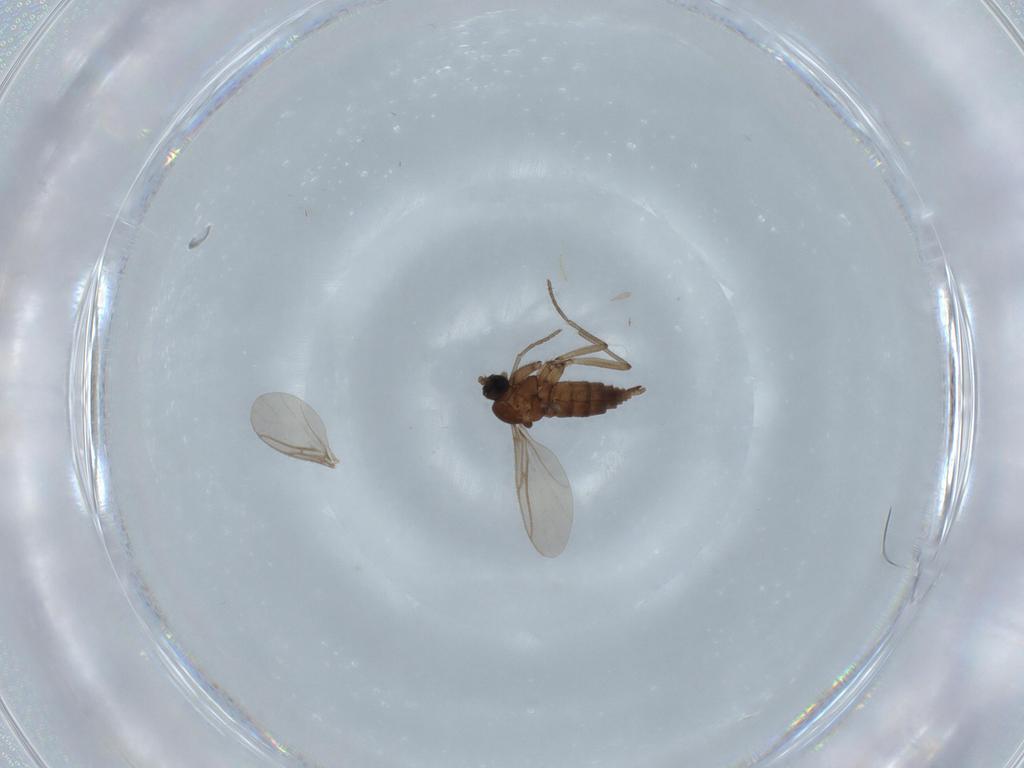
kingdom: Animalia
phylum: Arthropoda
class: Insecta
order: Diptera
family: Sciaridae
